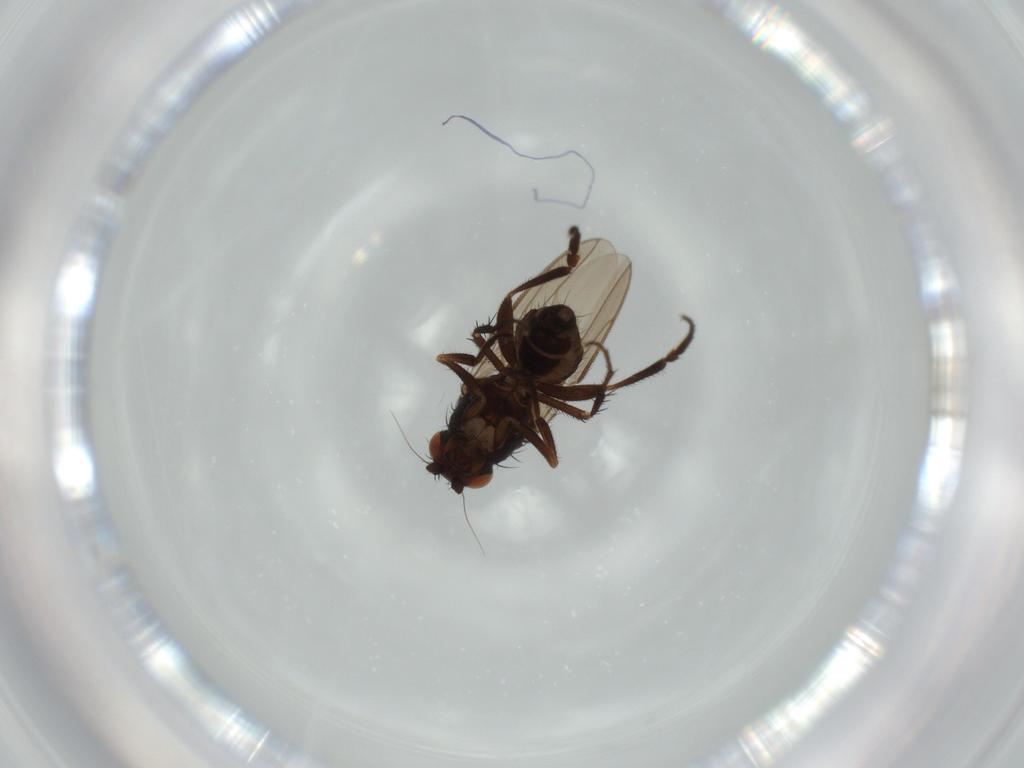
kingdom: Animalia
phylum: Arthropoda
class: Insecta
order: Diptera
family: Sphaeroceridae
